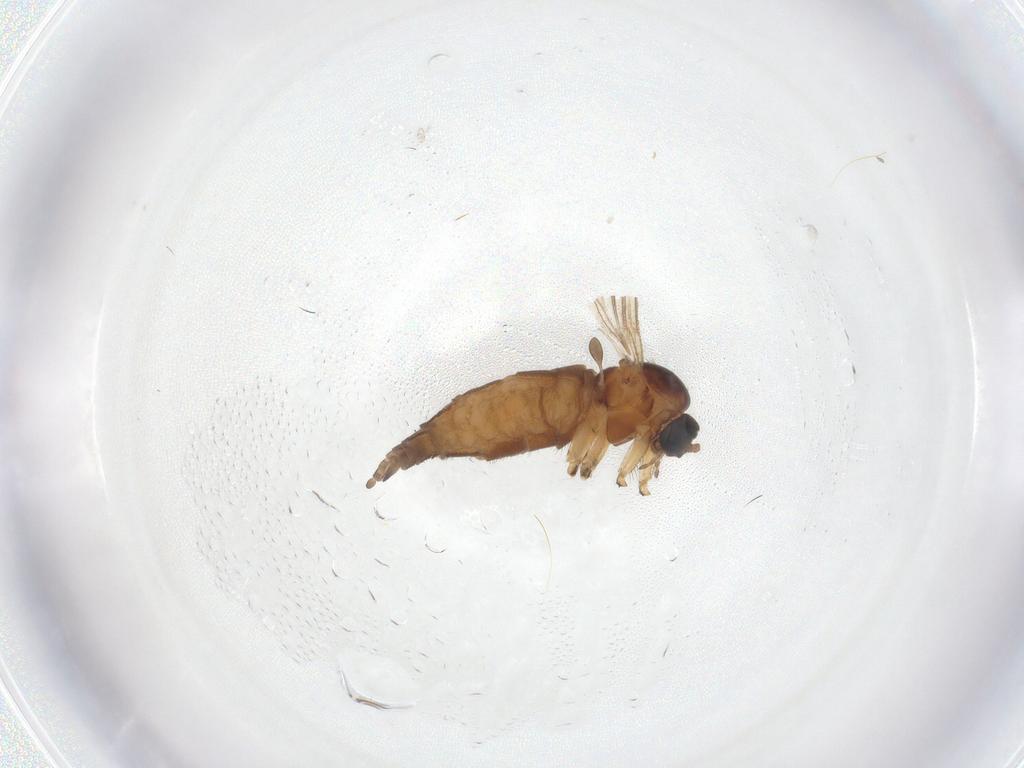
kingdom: Animalia
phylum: Arthropoda
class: Insecta
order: Diptera
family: Sciaridae
